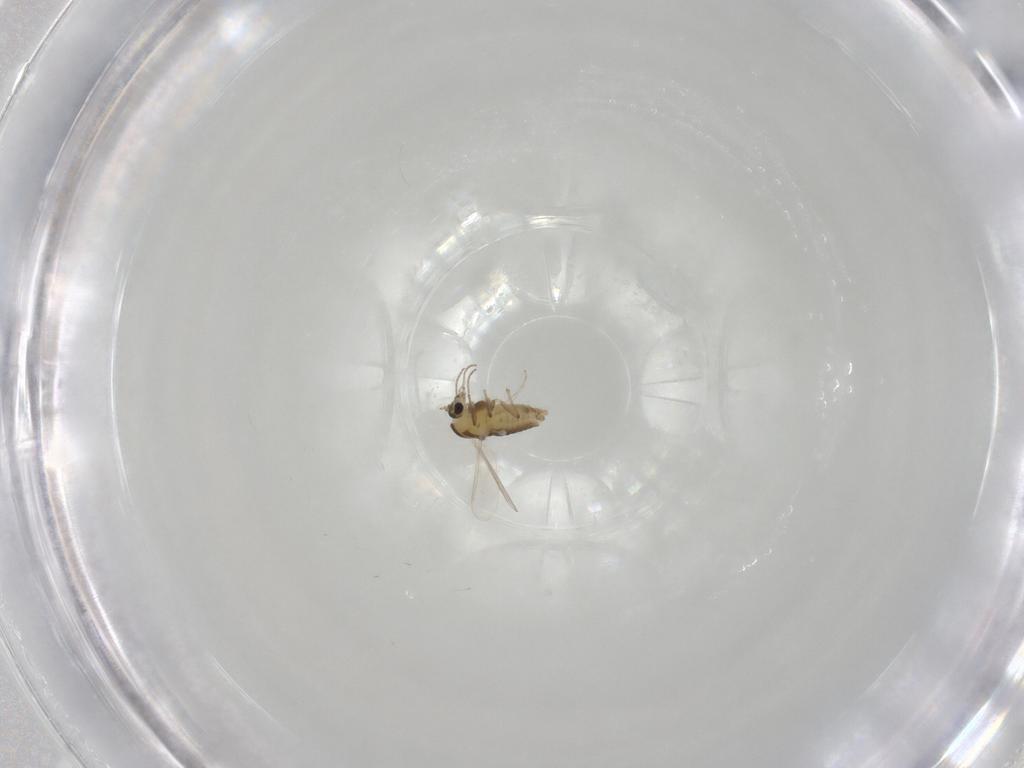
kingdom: Animalia
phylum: Arthropoda
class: Insecta
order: Diptera
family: Chironomidae
